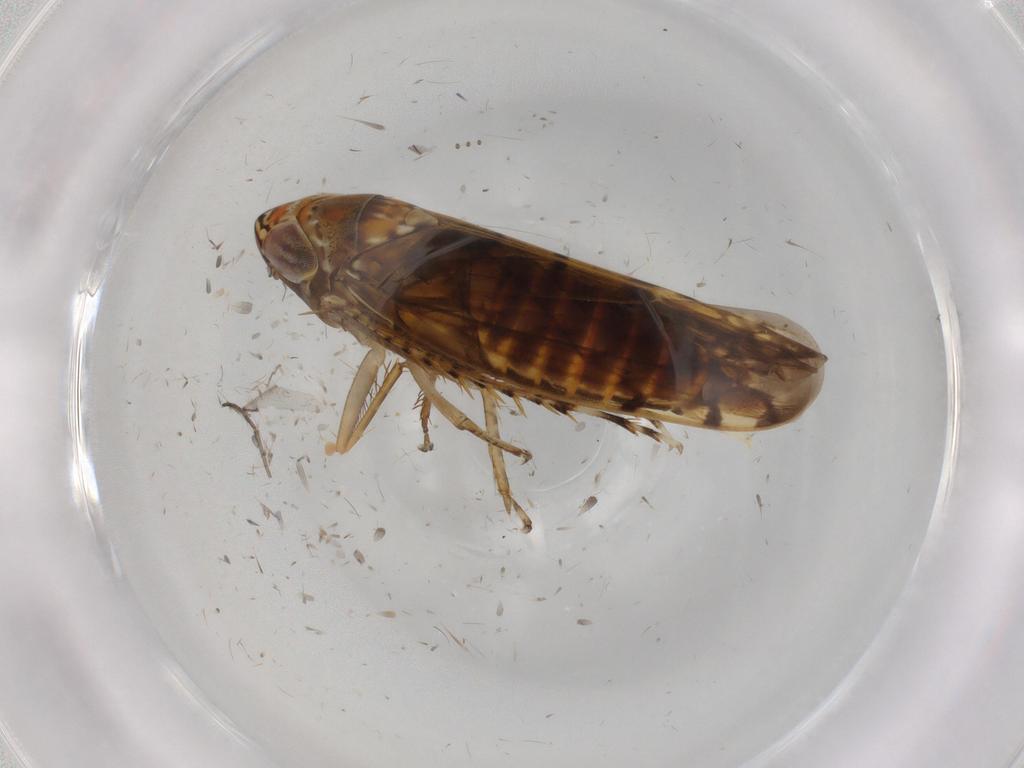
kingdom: Animalia
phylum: Arthropoda
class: Insecta
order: Hemiptera
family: Cicadellidae
